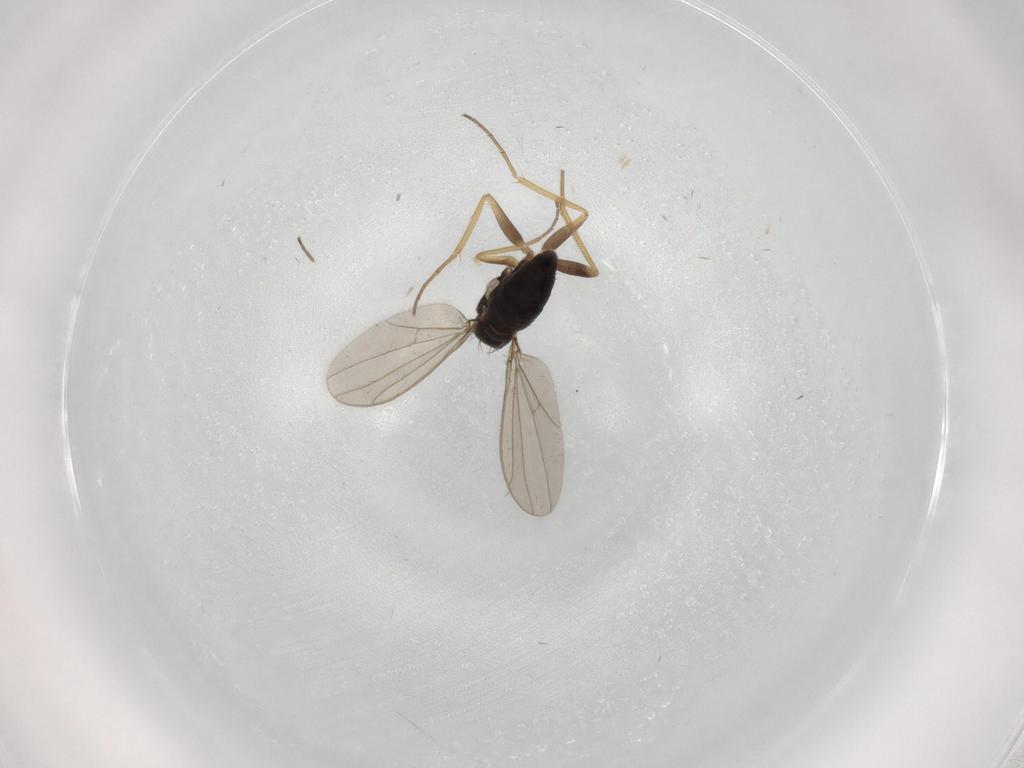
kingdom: Animalia
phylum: Arthropoda
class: Insecta
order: Diptera
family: Dolichopodidae
